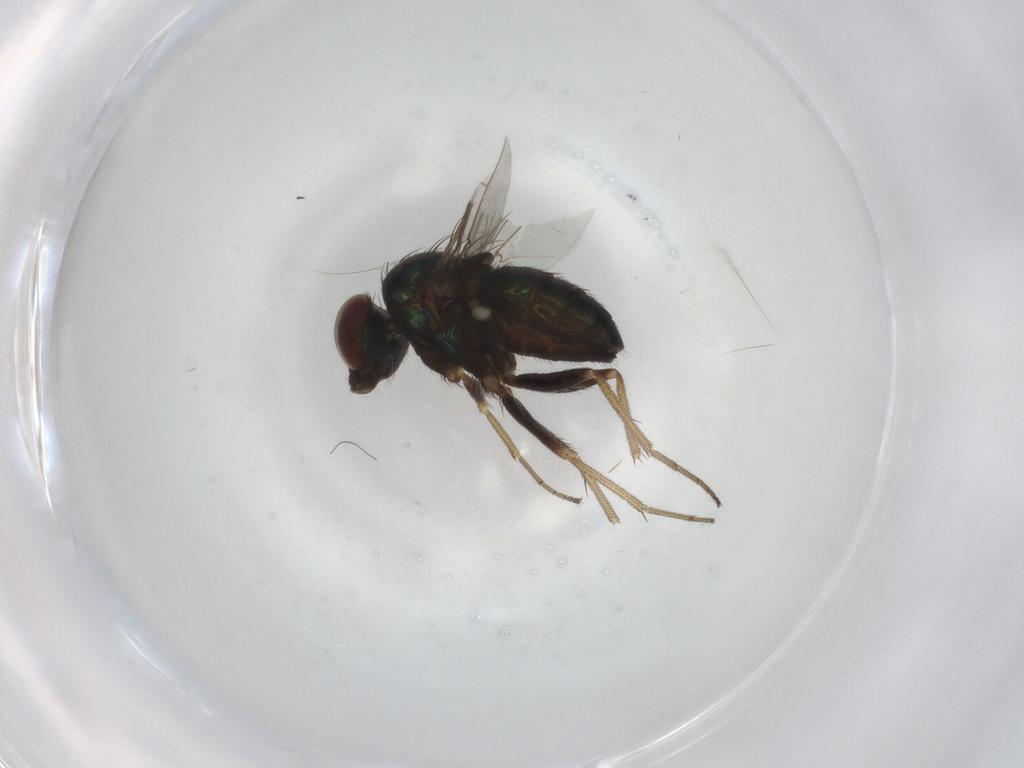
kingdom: Animalia
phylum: Arthropoda
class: Insecta
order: Diptera
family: Dolichopodidae
